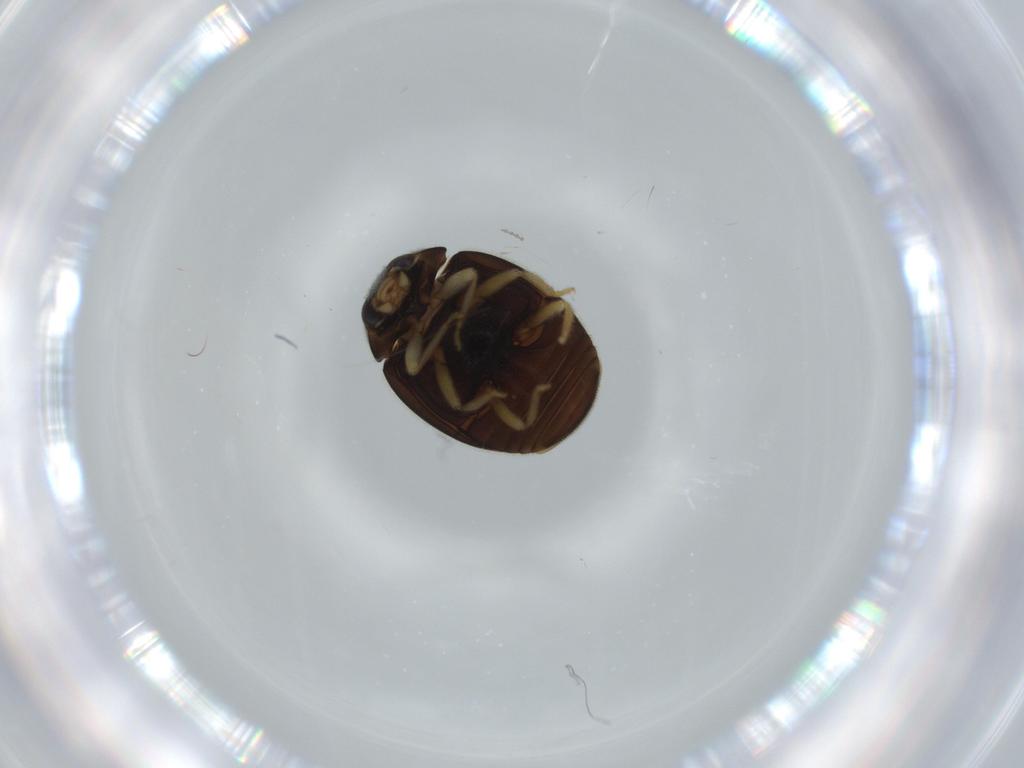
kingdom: Animalia
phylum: Arthropoda
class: Insecta
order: Coleoptera
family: Coccinellidae
